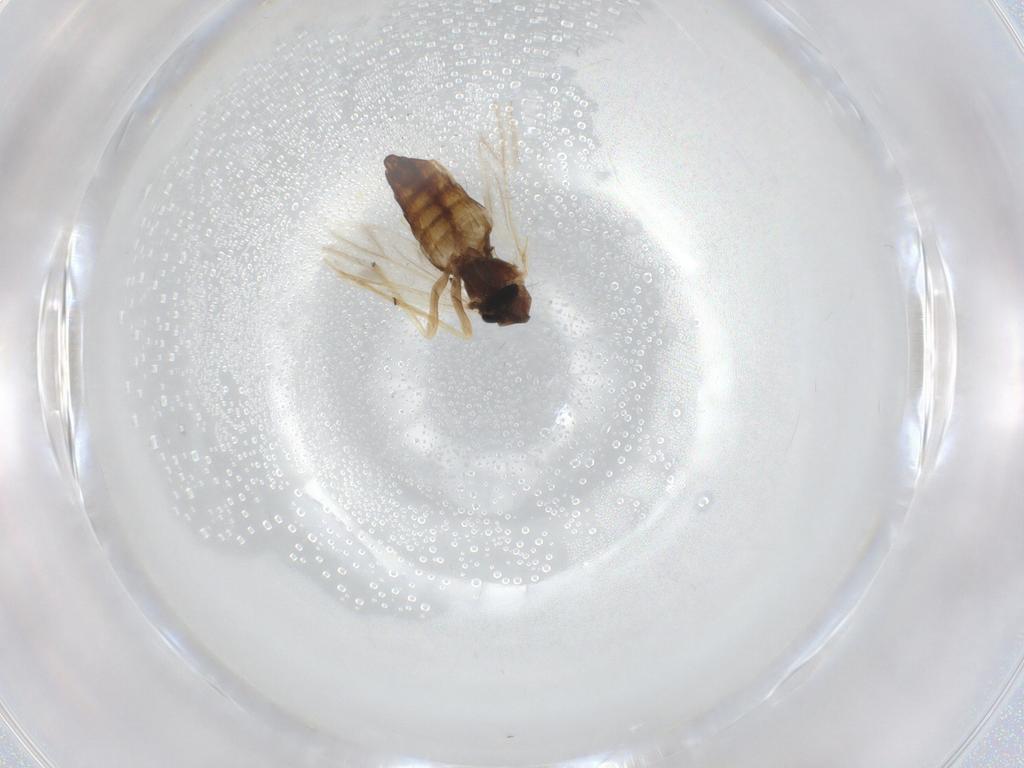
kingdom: Animalia
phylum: Arthropoda
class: Insecta
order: Diptera
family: Chironomidae
